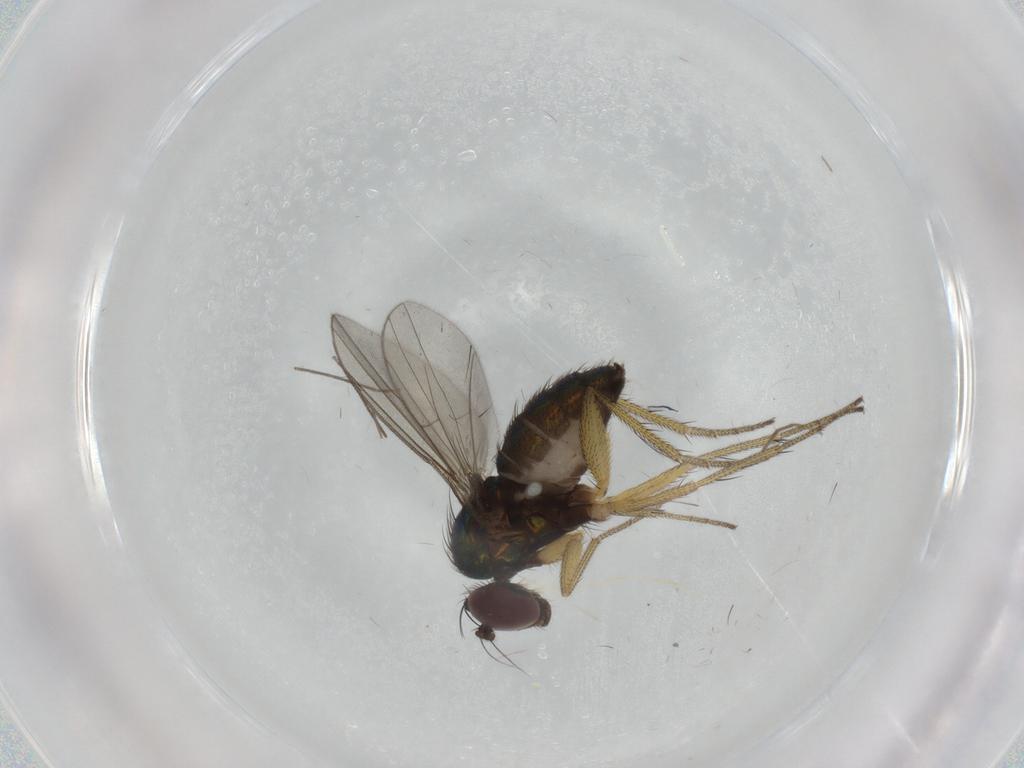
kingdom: Animalia
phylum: Arthropoda
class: Insecta
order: Diptera
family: Dolichopodidae
